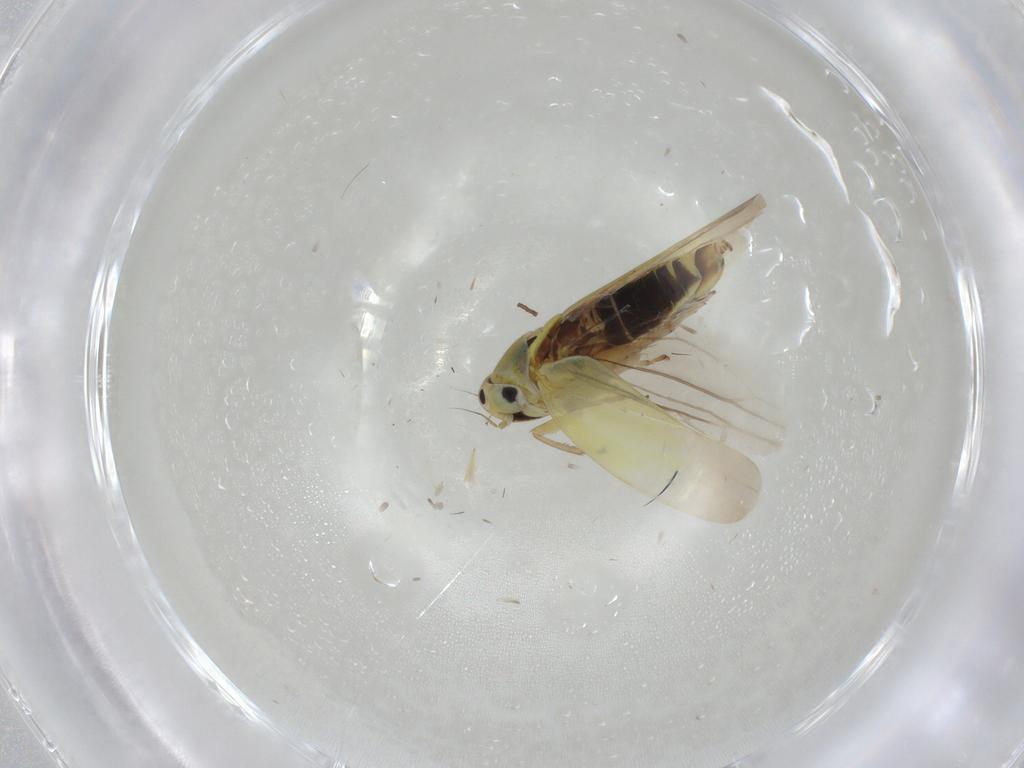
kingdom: Animalia
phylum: Arthropoda
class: Insecta
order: Hemiptera
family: Cicadellidae
